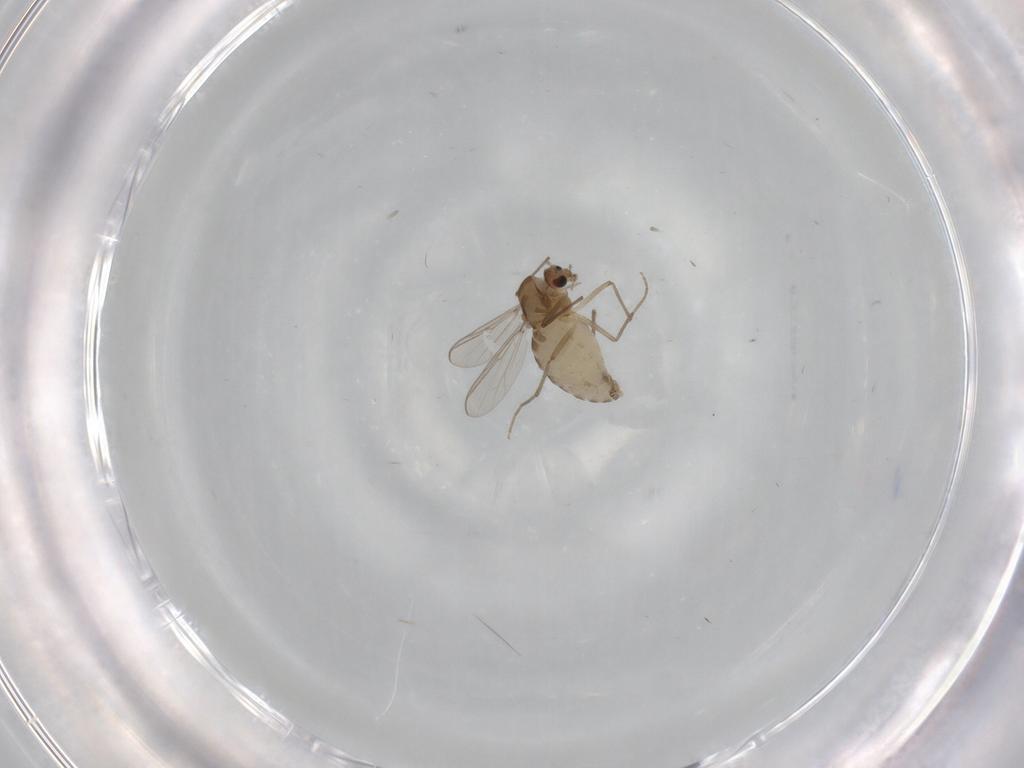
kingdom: Animalia
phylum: Arthropoda
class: Insecta
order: Diptera
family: Chironomidae
